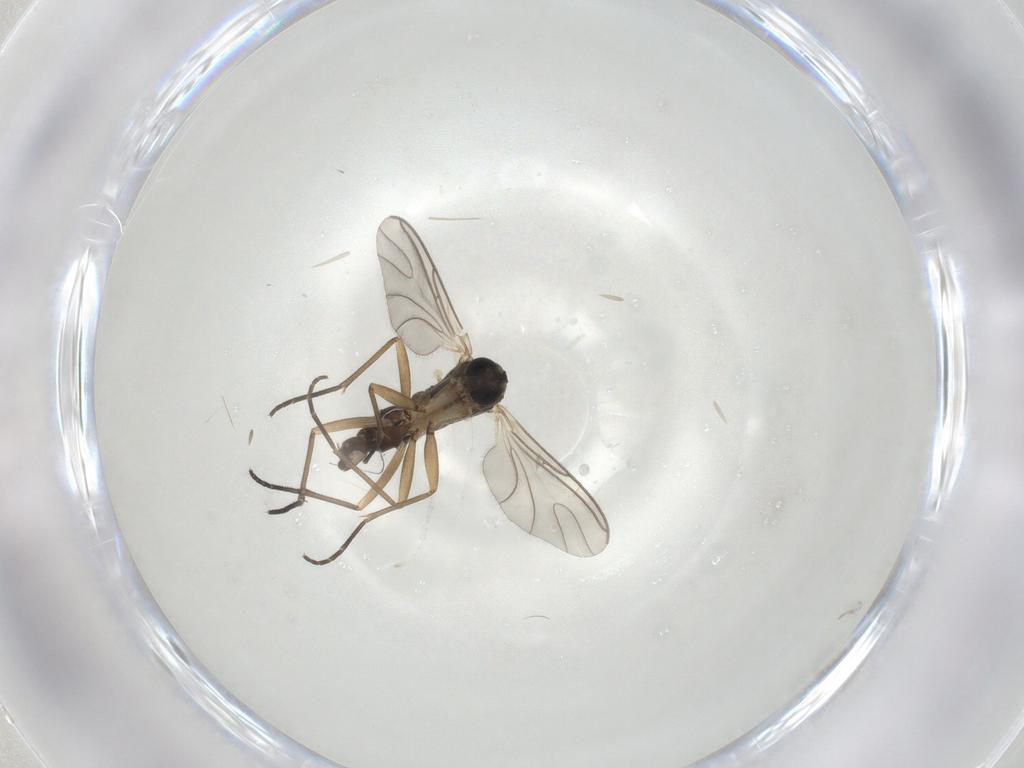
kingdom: Animalia
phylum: Arthropoda
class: Insecta
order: Diptera
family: Sciaridae
